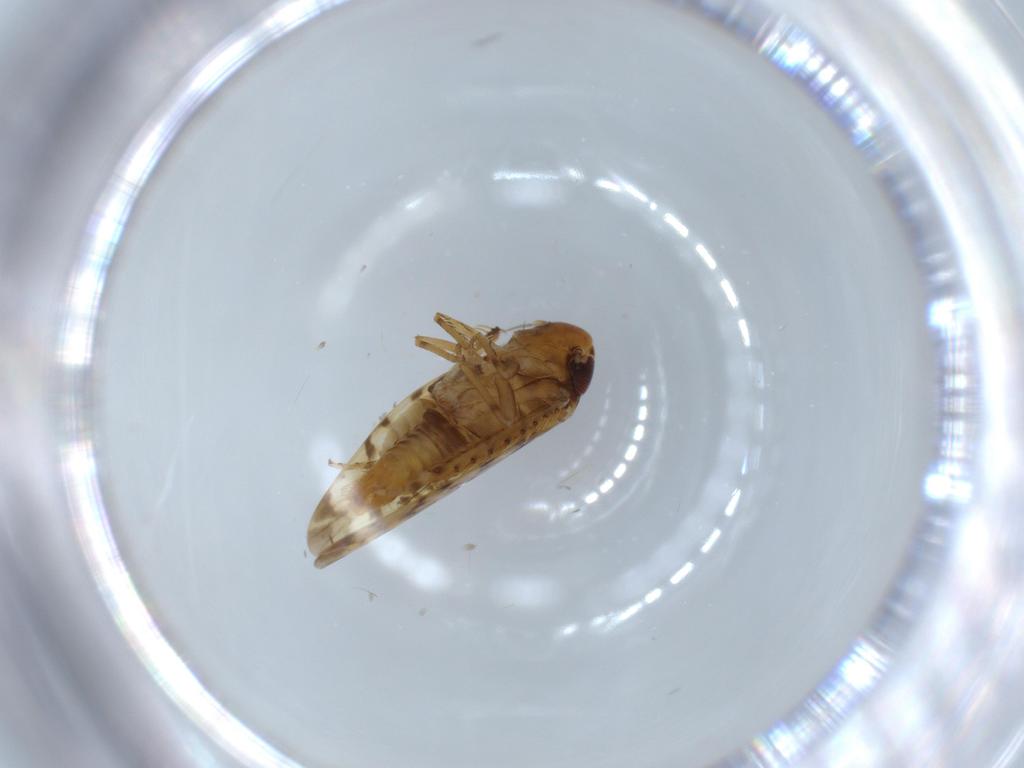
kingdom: Animalia
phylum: Arthropoda
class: Insecta
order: Hemiptera
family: Cicadellidae
